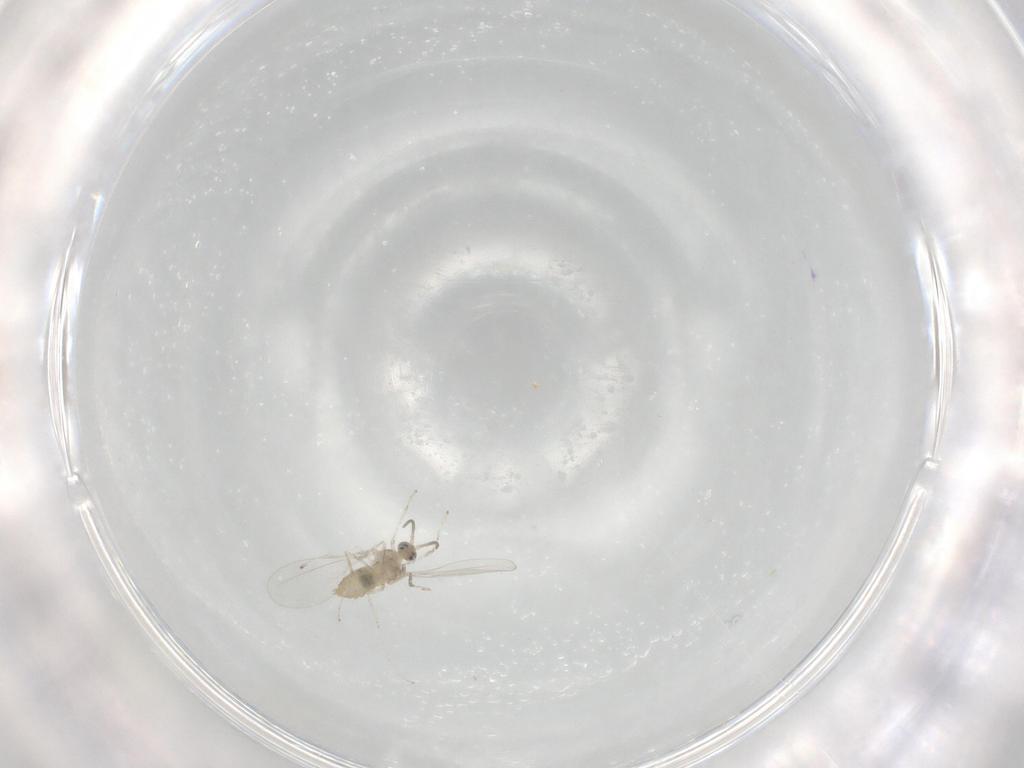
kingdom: Animalia
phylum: Arthropoda
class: Insecta
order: Diptera
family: Cecidomyiidae
